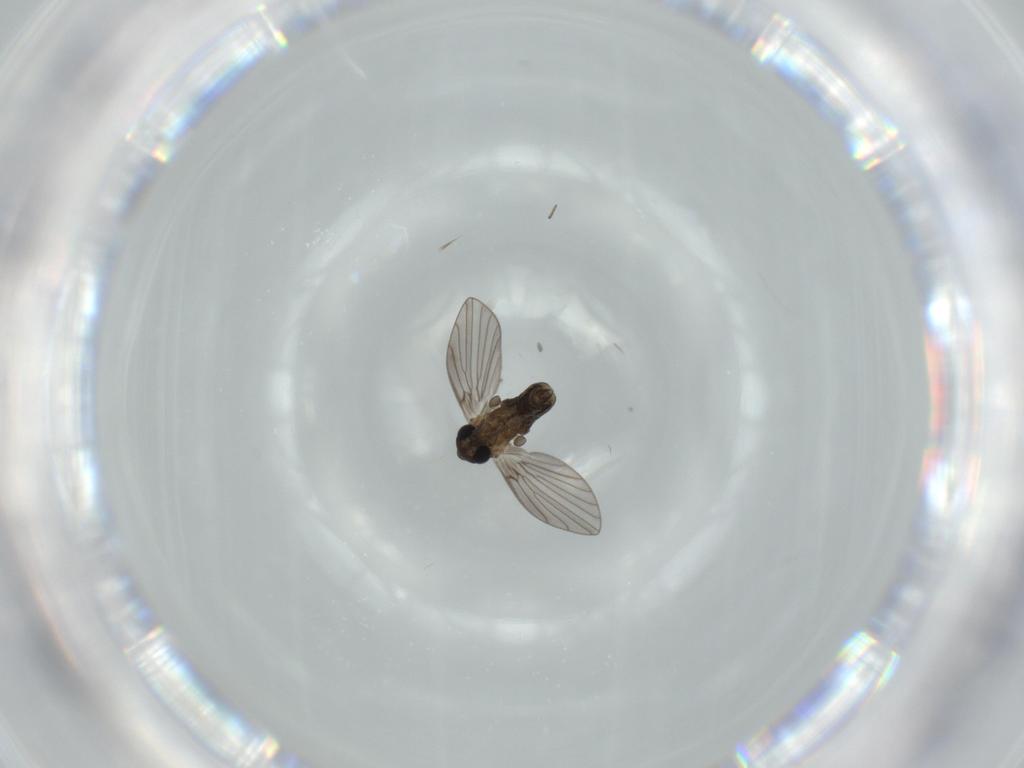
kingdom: Animalia
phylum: Arthropoda
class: Insecta
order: Diptera
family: Psychodidae
